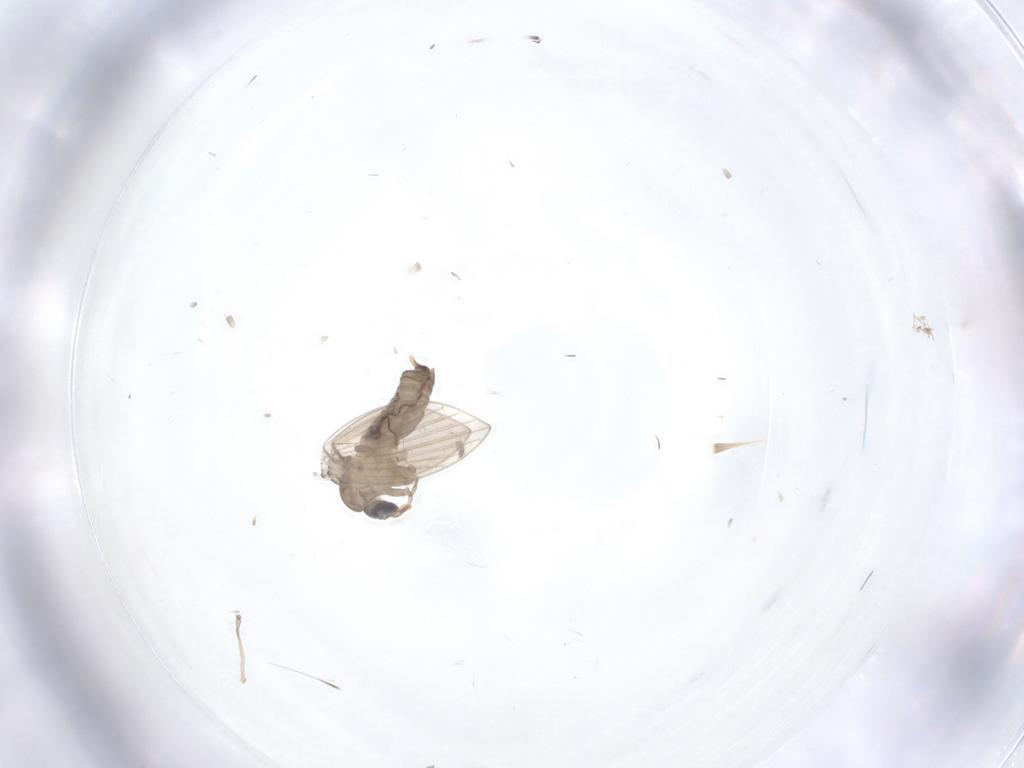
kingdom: Animalia
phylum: Arthropoda
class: Insecta
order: Diptera
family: Psychodidae
